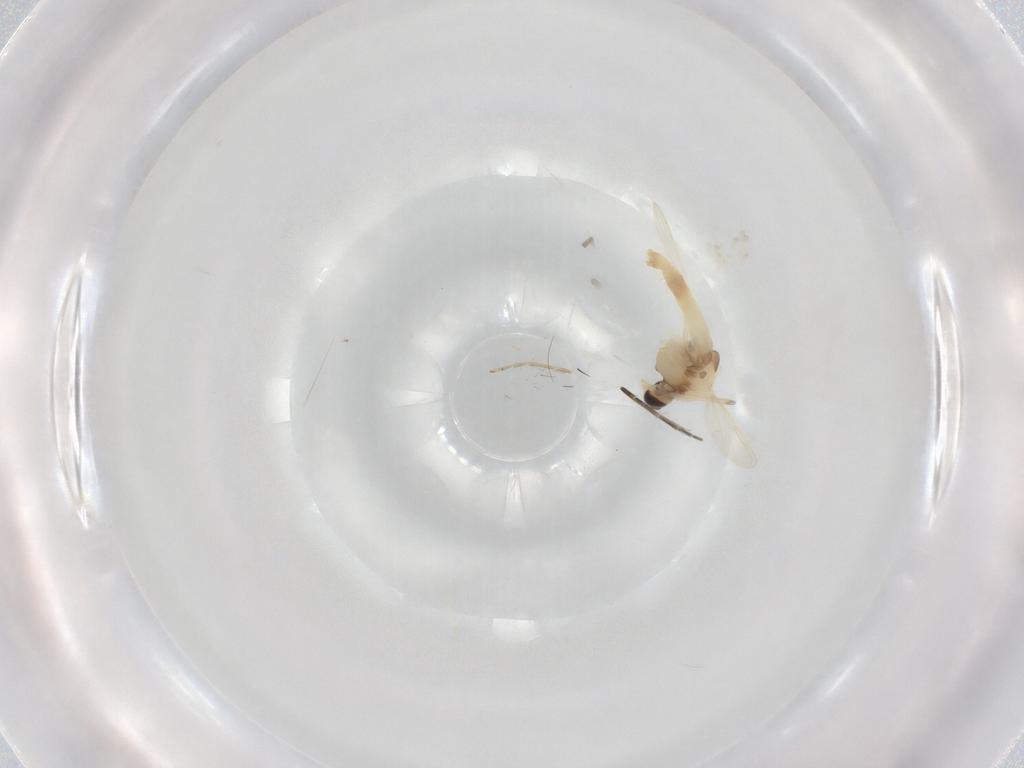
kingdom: Animalia
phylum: Arthropoda
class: Insecta
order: Diptera
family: Chironomidae
